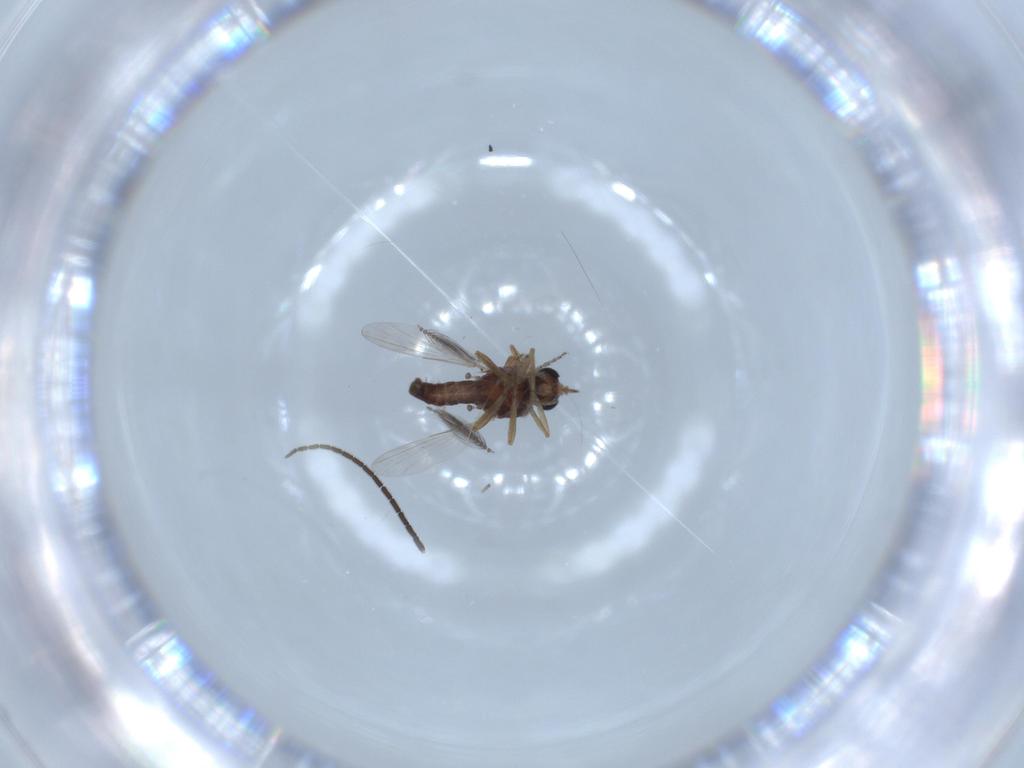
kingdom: Animalia
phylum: Arthropoda
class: Insecta
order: Diptera
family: Sciaridae
